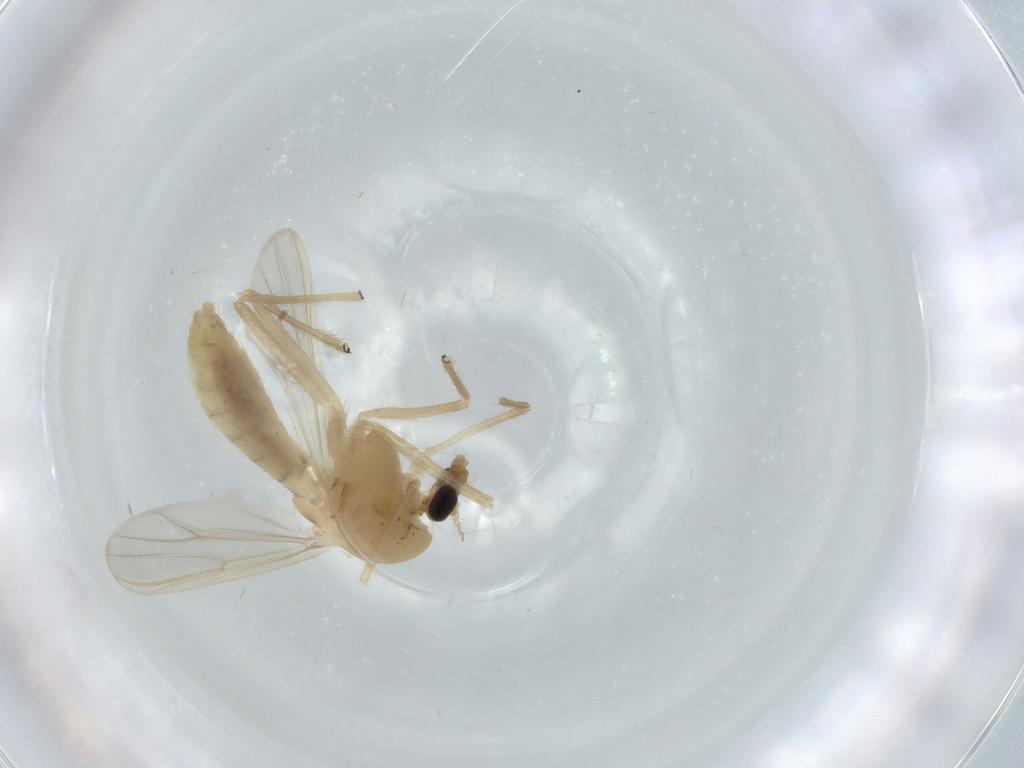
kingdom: Animalia
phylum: Arthropoda
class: Insecta
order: Diptera
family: Chironomidae
